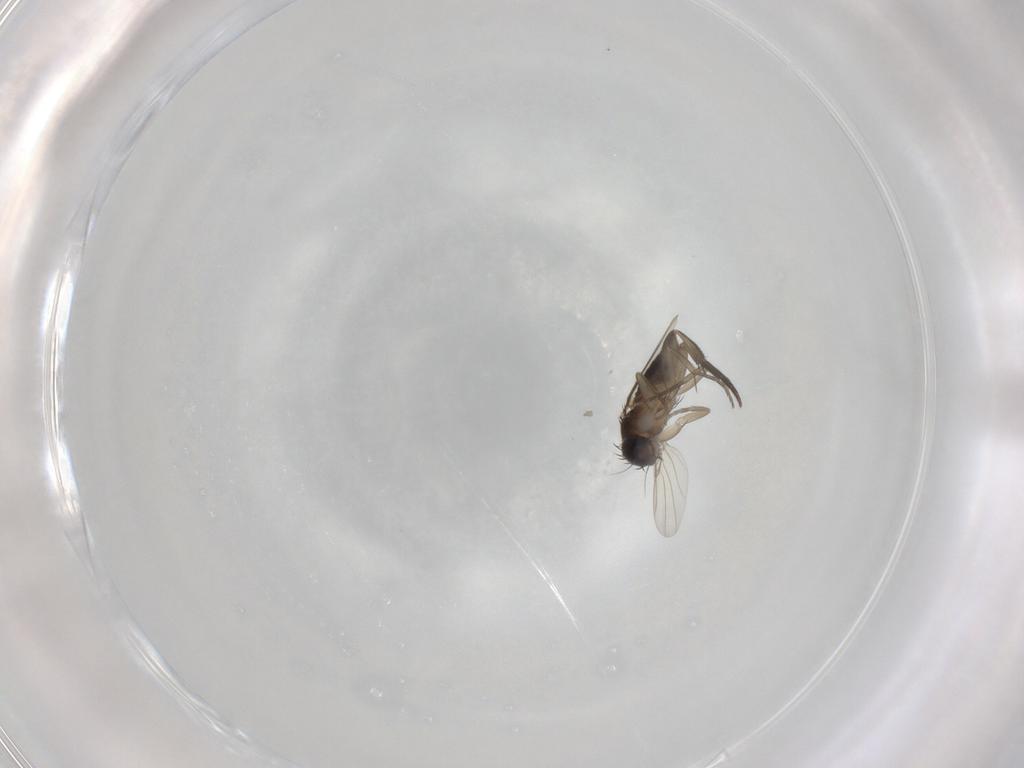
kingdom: Animalia
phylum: Arthropoda
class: Insecta
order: Diptera
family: Phoridae
